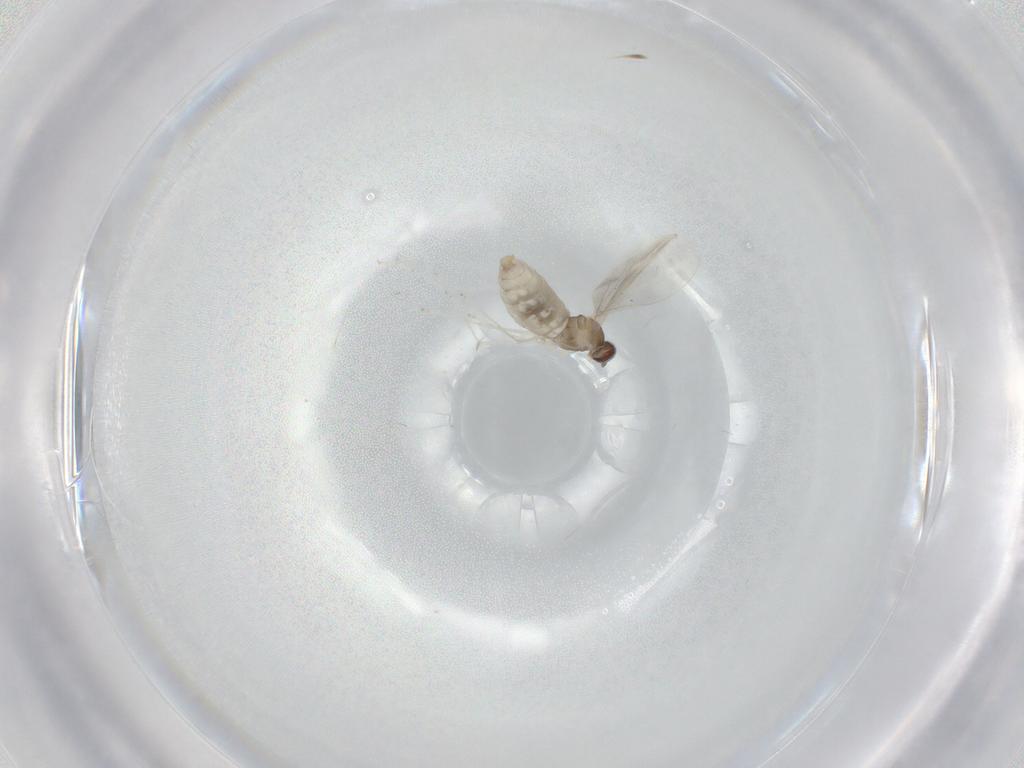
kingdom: Animalia
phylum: Arthropoda
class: Insecta
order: Diptera
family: Cecidomyiidae
